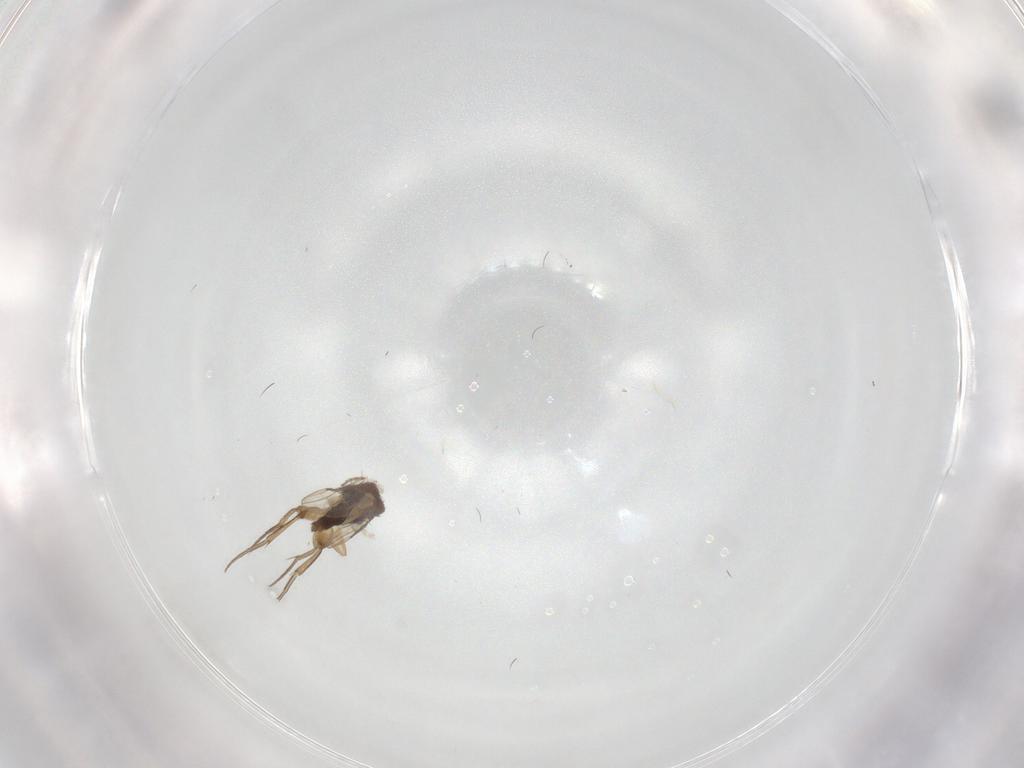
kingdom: Animalia
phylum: Arthropoda
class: Insecta
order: Diptera
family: Phoridae
